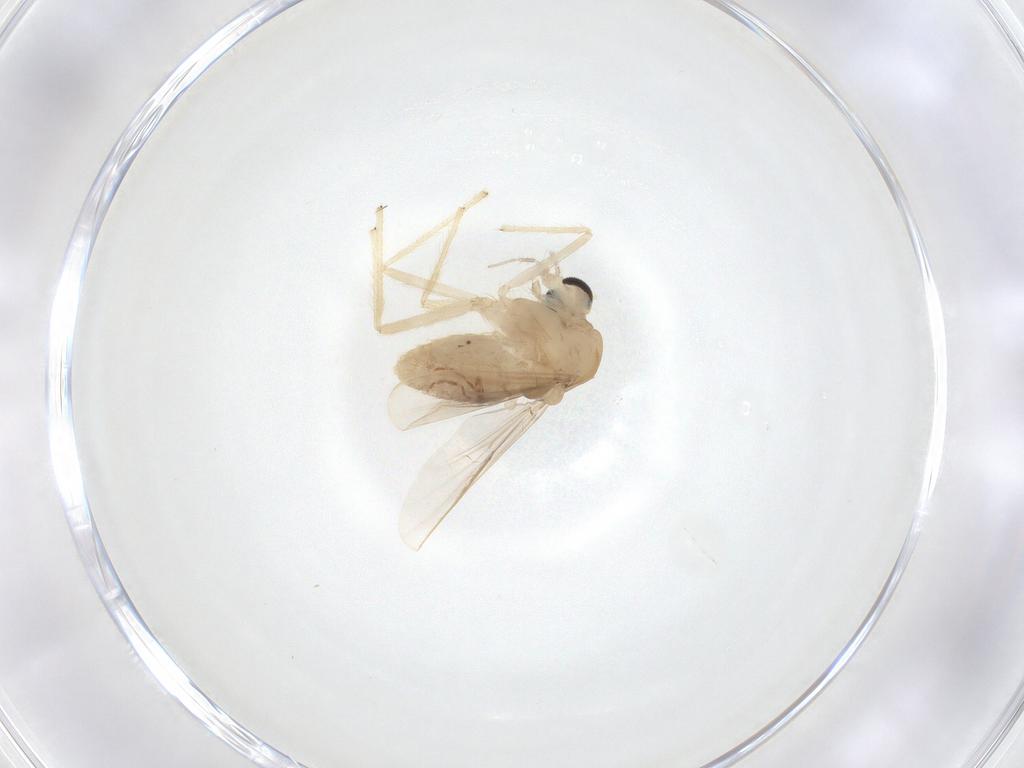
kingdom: Animalia
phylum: Arthropoda
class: Insecta
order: Diptera
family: Chironomidae
